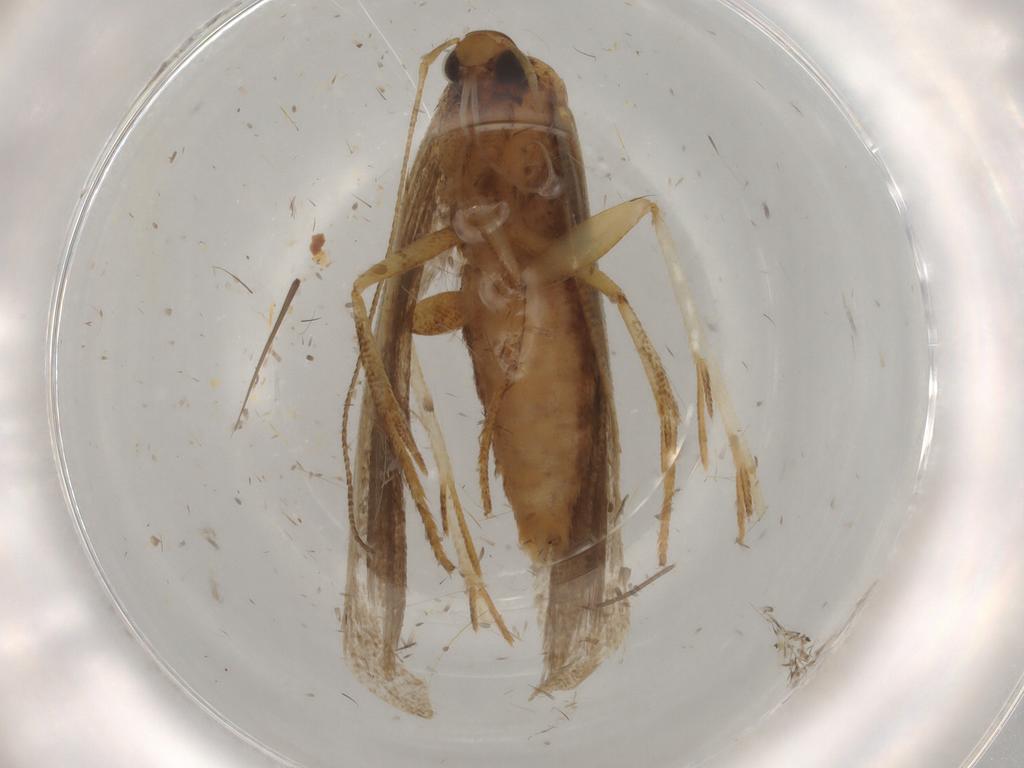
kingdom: Animalia
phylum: Arthropoda
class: Insecta
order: Lepidoptera
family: Gelechiidae
